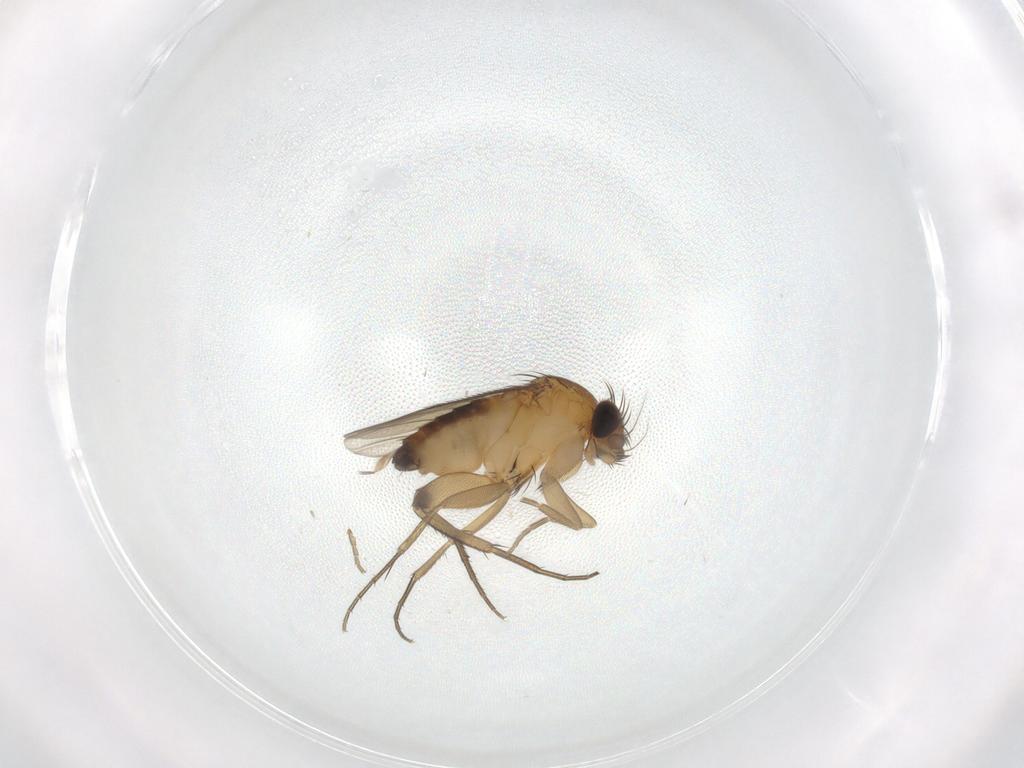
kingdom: Animalia
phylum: Arthropoda
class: Insecta
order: Diptera
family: Phoridae
